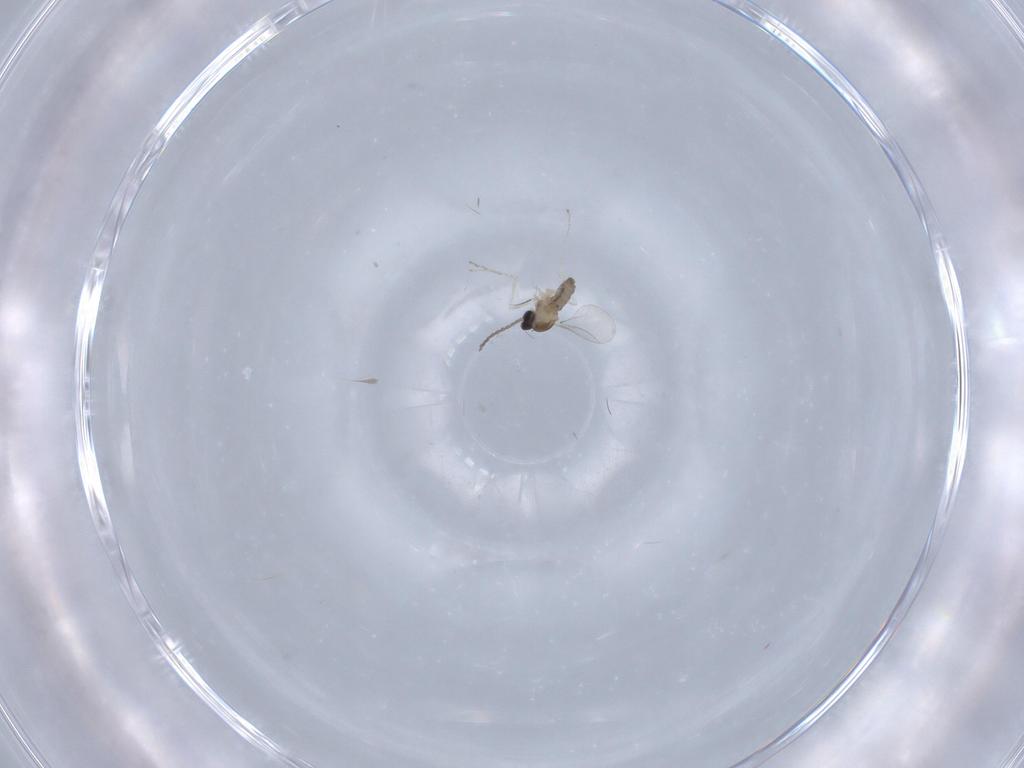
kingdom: Animalia
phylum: Arthropoda
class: Insecta
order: Diptera
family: Cecidomyiidae
